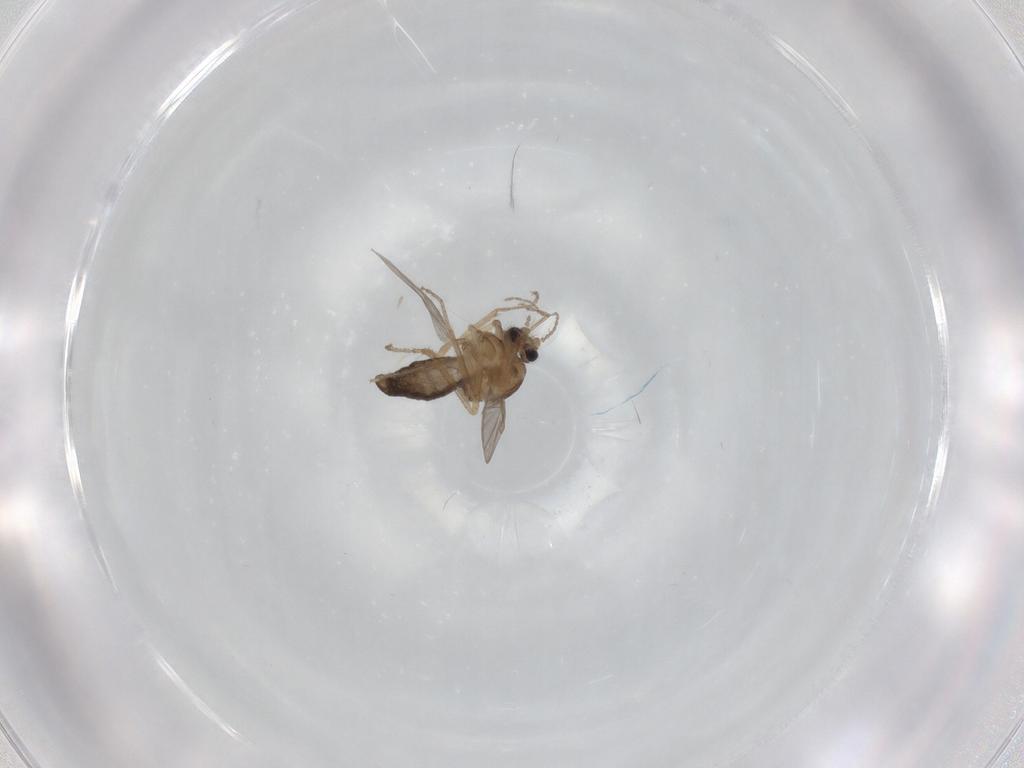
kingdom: Animalia
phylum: Arthropoda
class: Insecta
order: Diptera
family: Ceratopogonidae
